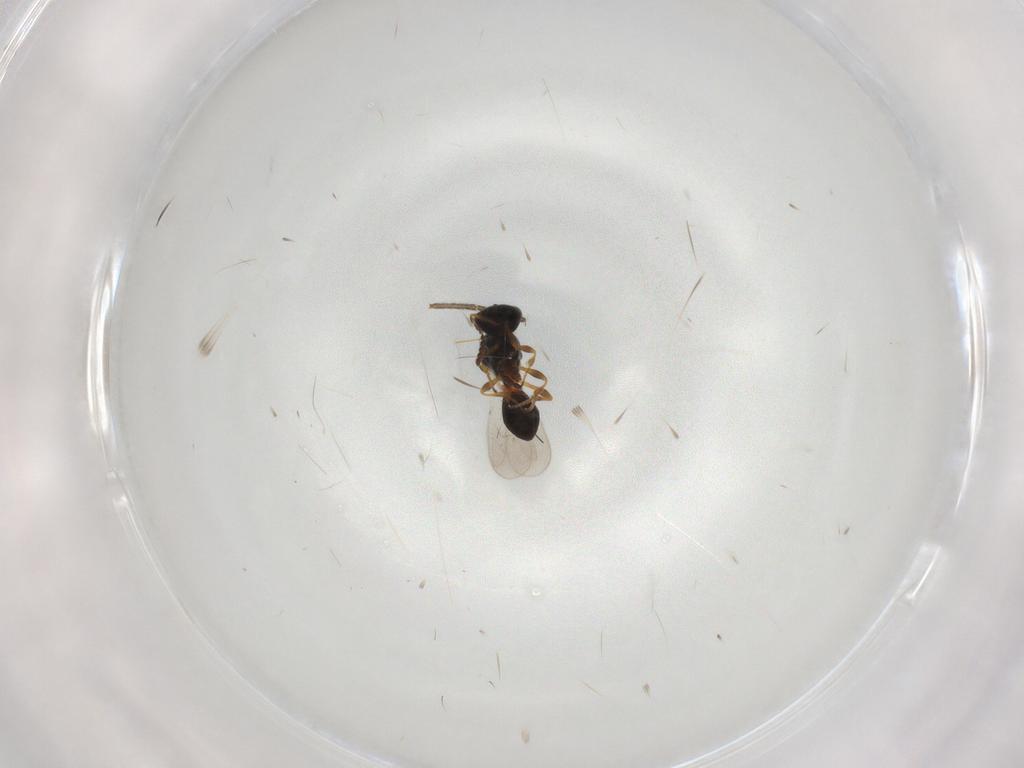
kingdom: Animalia
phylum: Arthropoda
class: Insecta
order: Hymenoptera
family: Platygastridae
